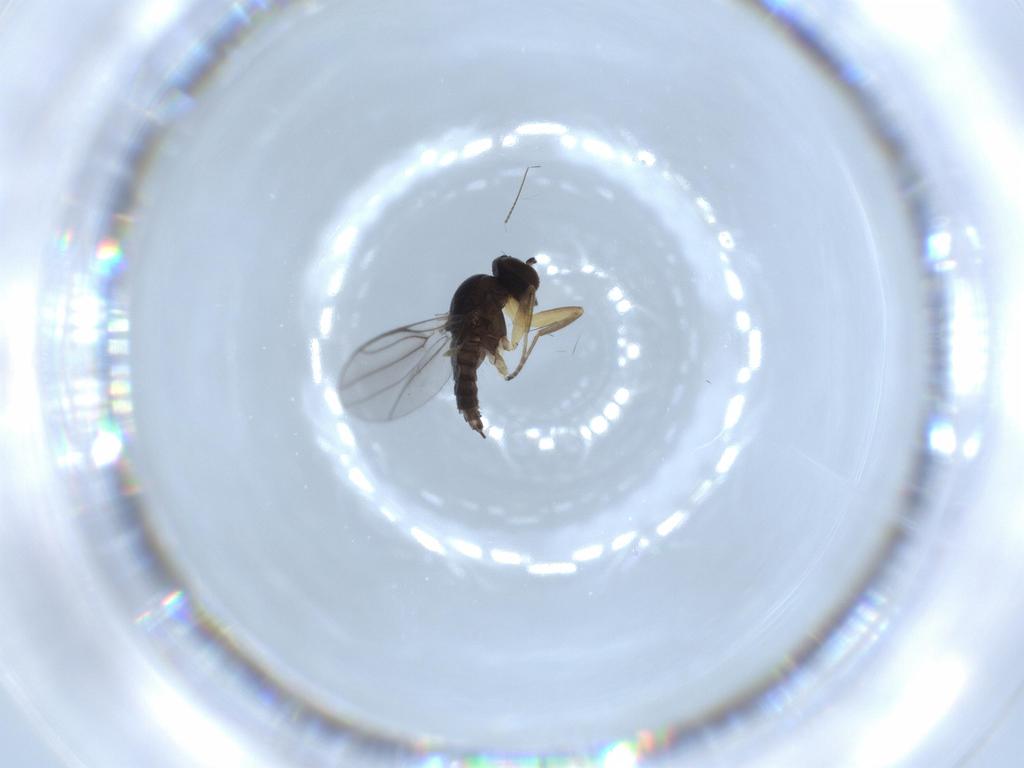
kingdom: Animalia
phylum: Arthropoda
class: Insecta
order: Diptera
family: Hybotidae
